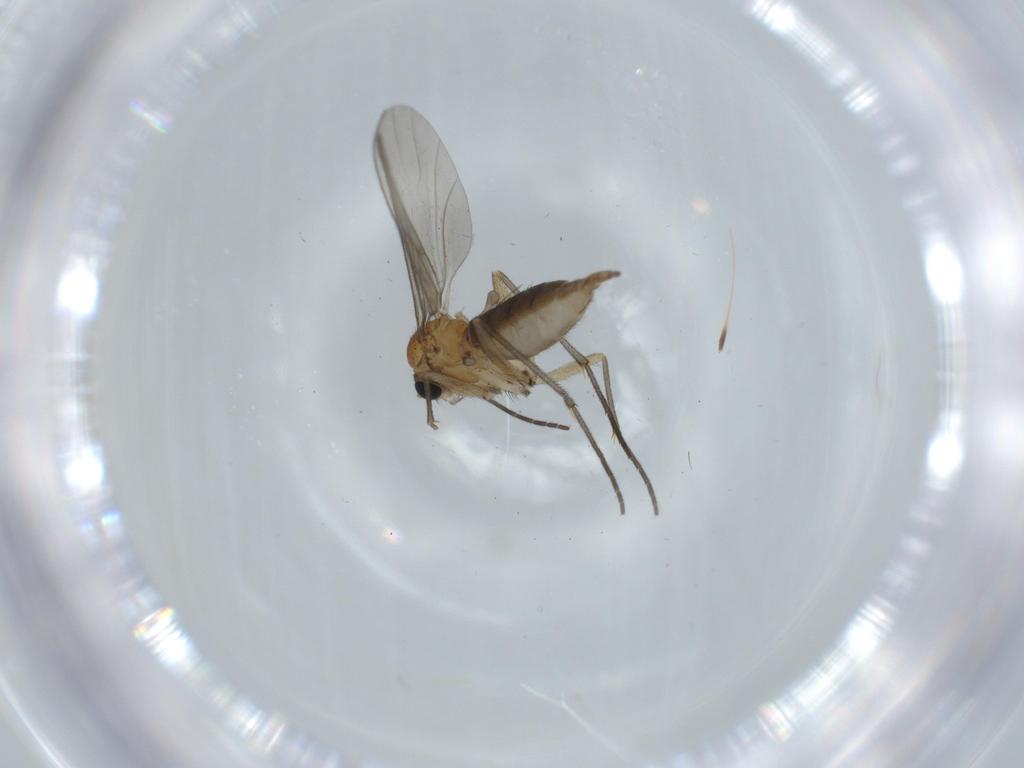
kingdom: Animalia
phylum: Arthropoda
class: Insecta
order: Diptera
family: Sciaridae
